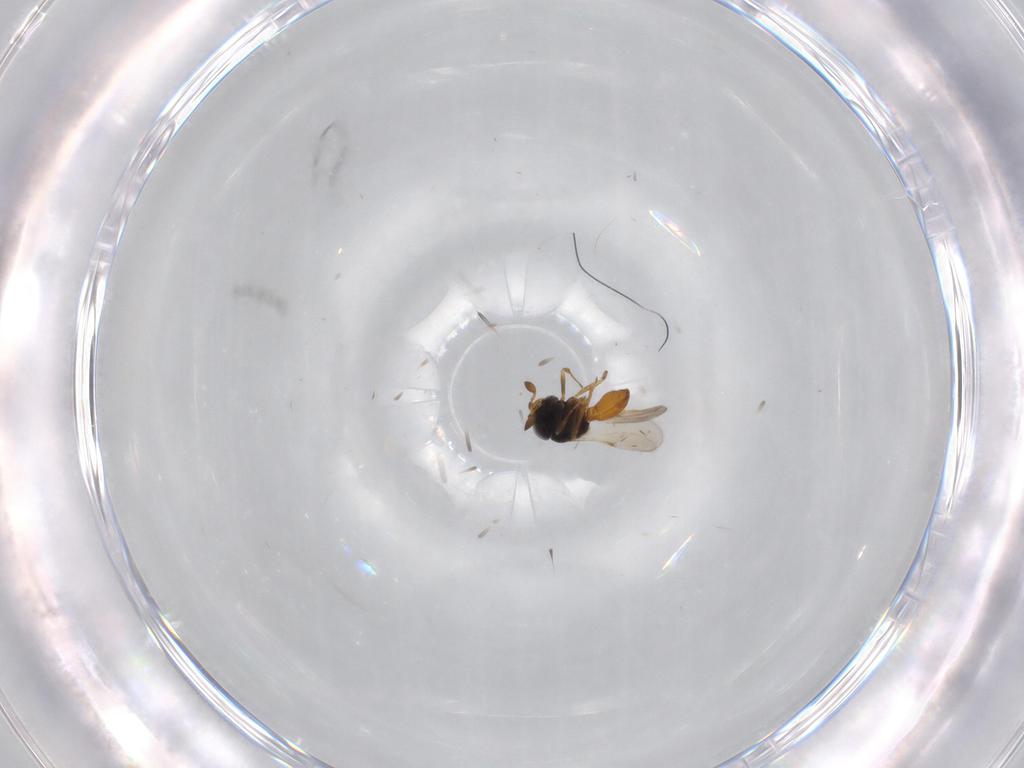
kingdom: Animalia
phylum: Arthropoda
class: Insecta
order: Hymenoptera
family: Scelionidae
